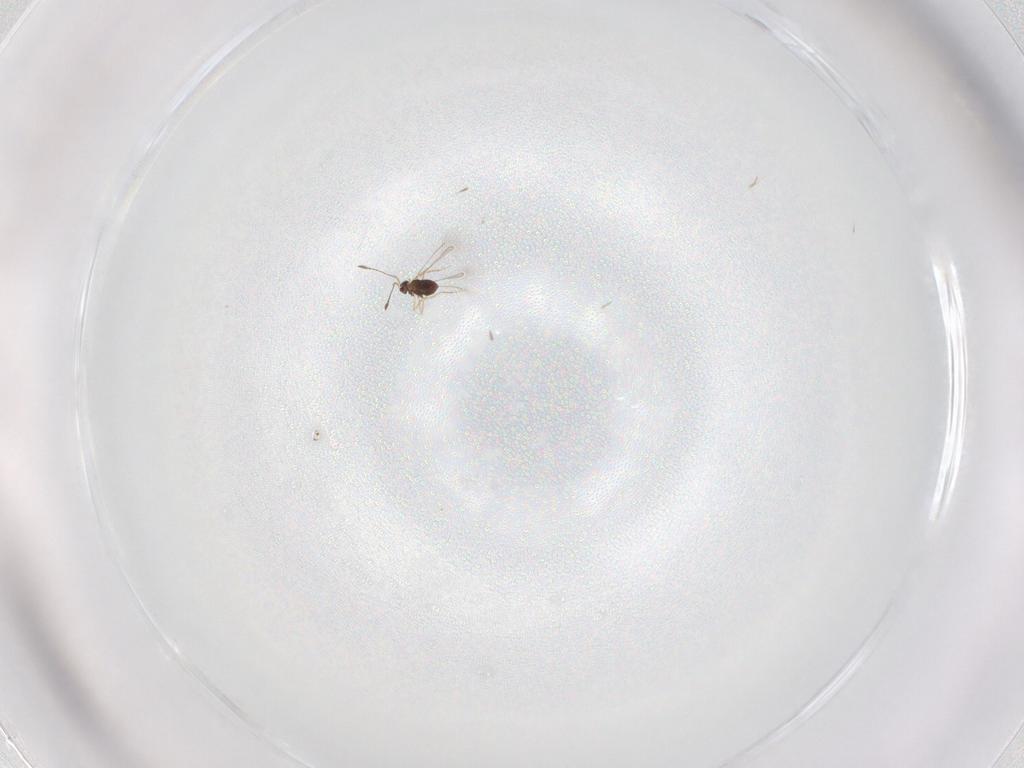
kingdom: Animalia
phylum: Arthropoda
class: Insecta
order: Hymenoptera
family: Mymaridae
